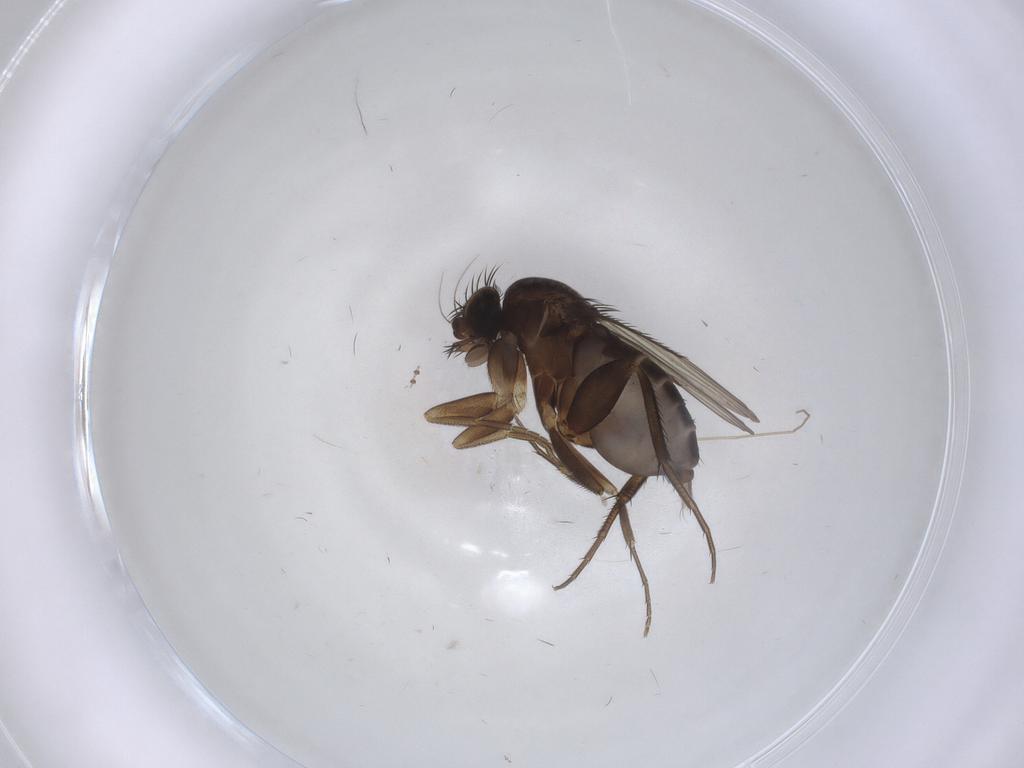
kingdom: Animalia
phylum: Arthropoda
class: Insecta
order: Diptera
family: Phoridae
